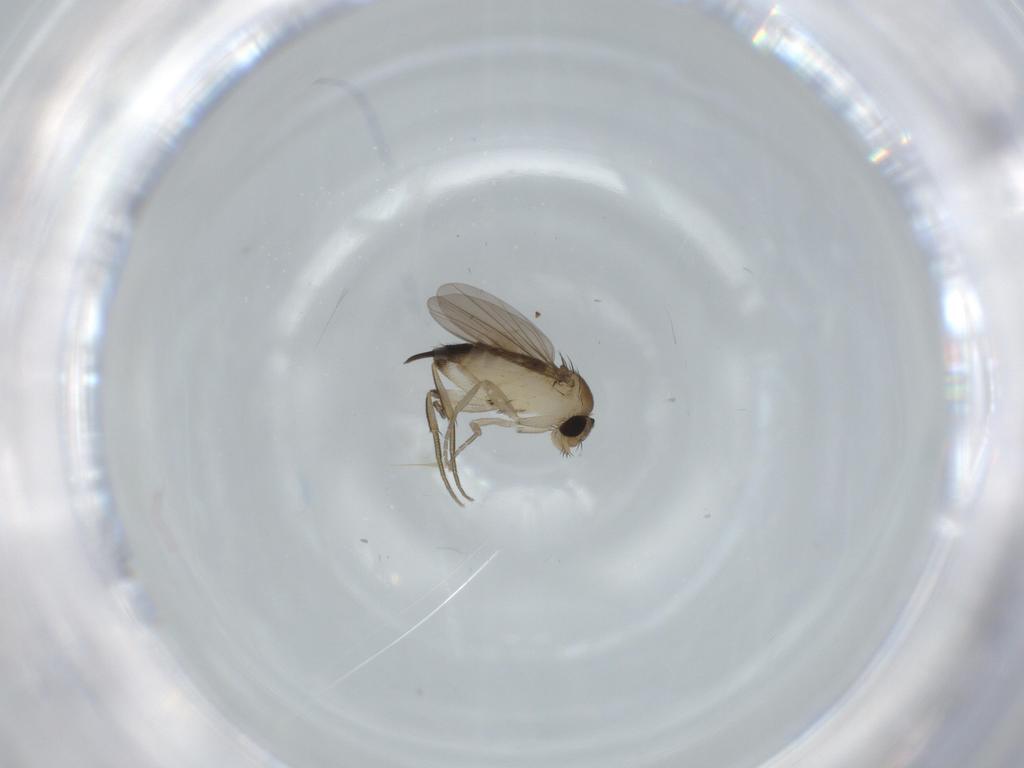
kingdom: Animalia
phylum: Arthropoda
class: Insecta
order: Diptera
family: Phoridae
